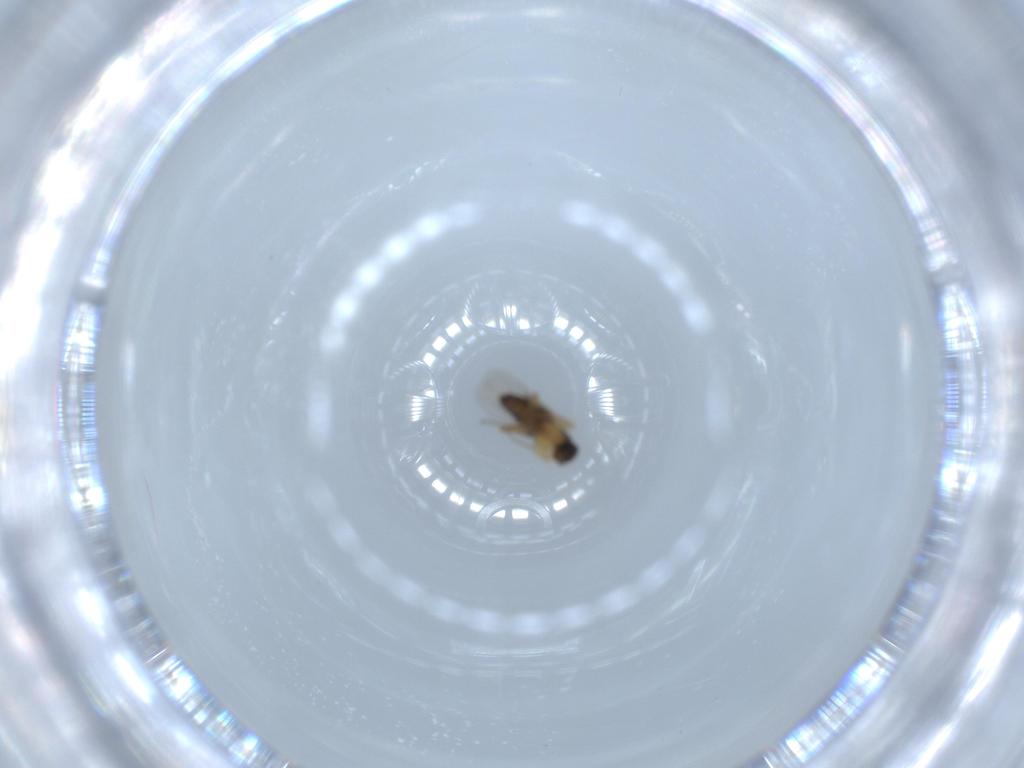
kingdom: Animalia
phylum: Arthropoda
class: Insecta
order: Diptera
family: Phoridae
